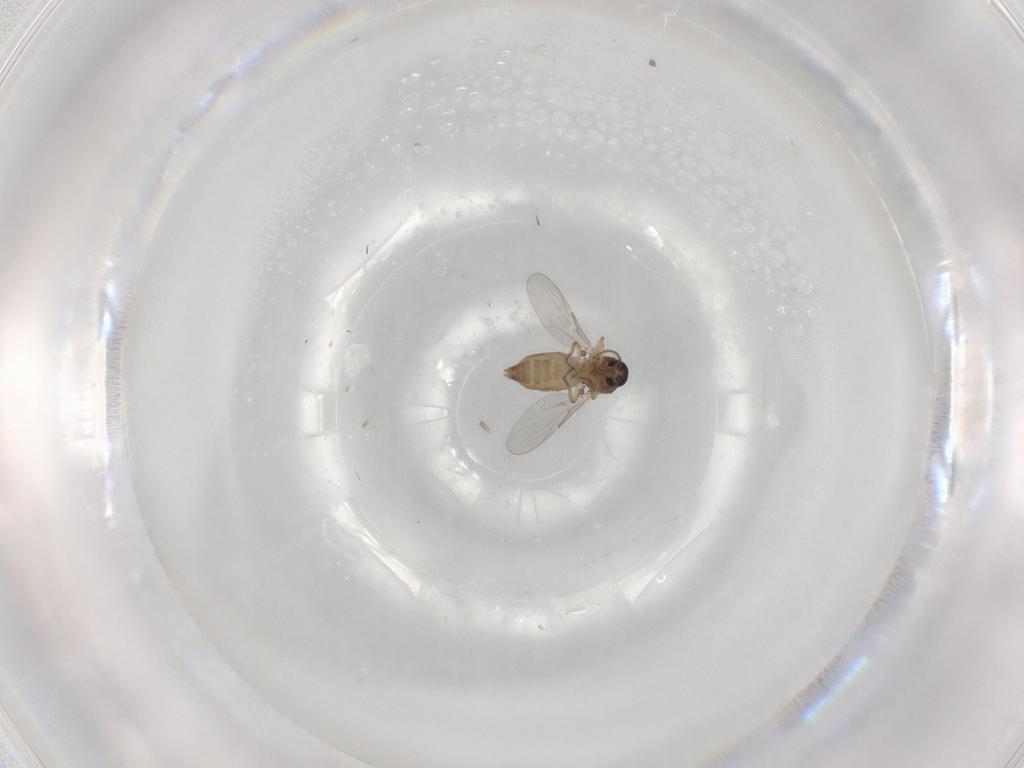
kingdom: Animalia
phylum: Arthropoda
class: Insecta
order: Diptera
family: Ceratopogonidae
